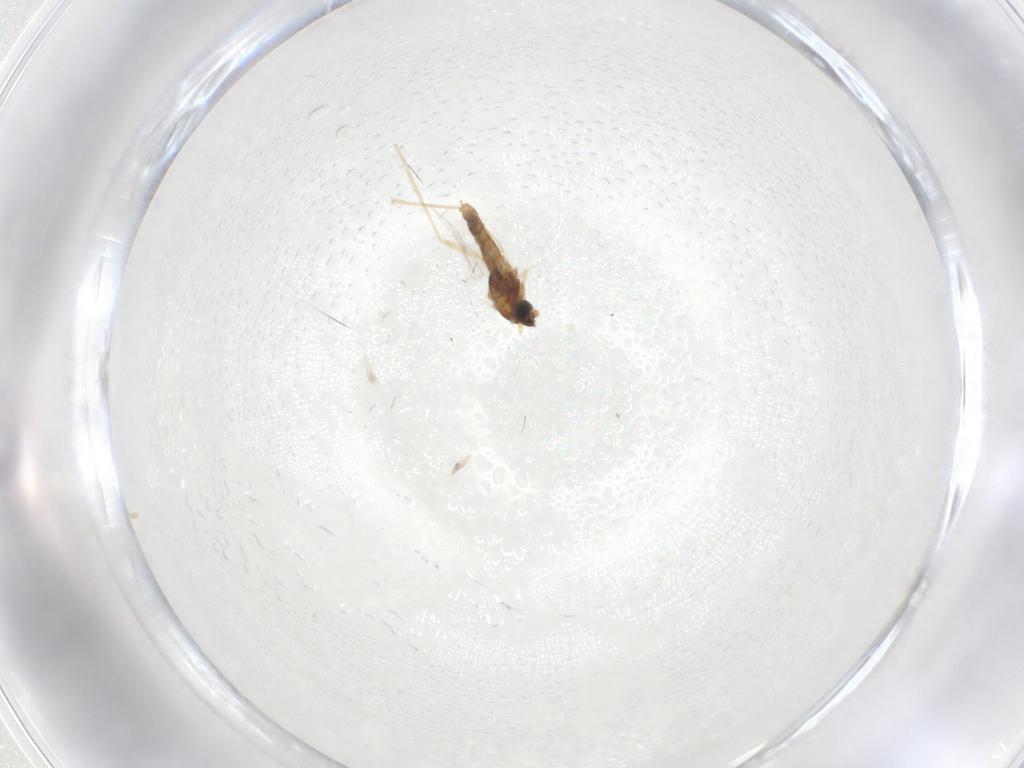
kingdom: Animalia
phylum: Arthropoda
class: Insecta
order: Diptera
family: Cecidomyiidae
